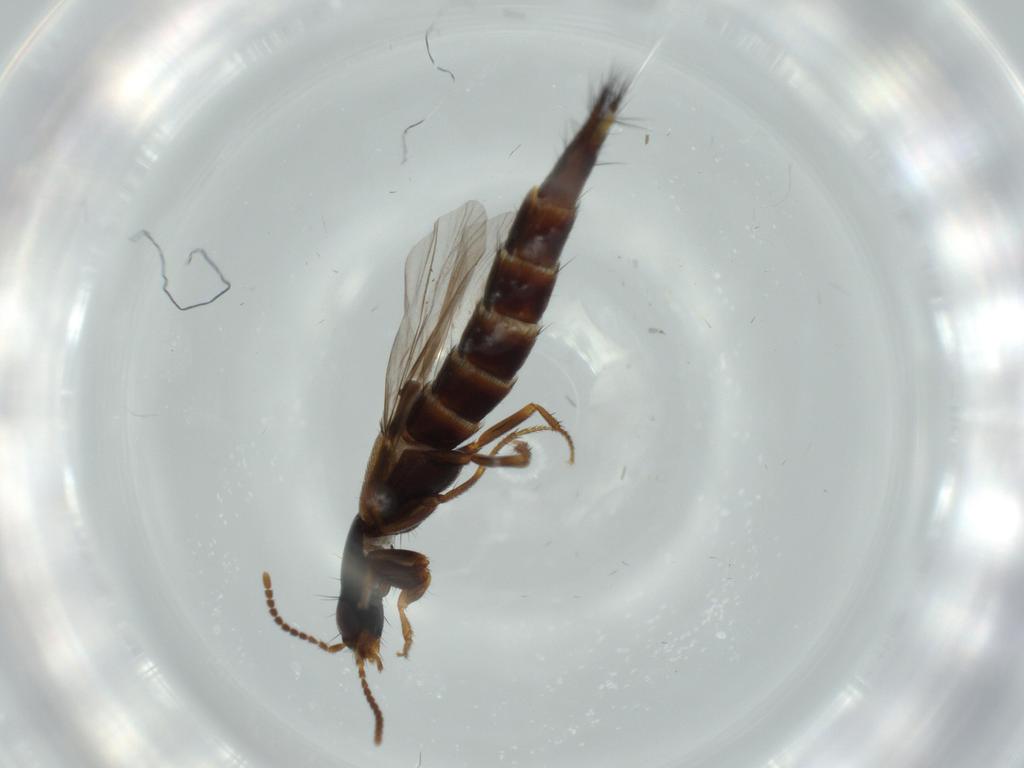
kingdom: Animalia
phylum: Arthropoda
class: Insecta
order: Coleoptera
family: Staphylinidae
